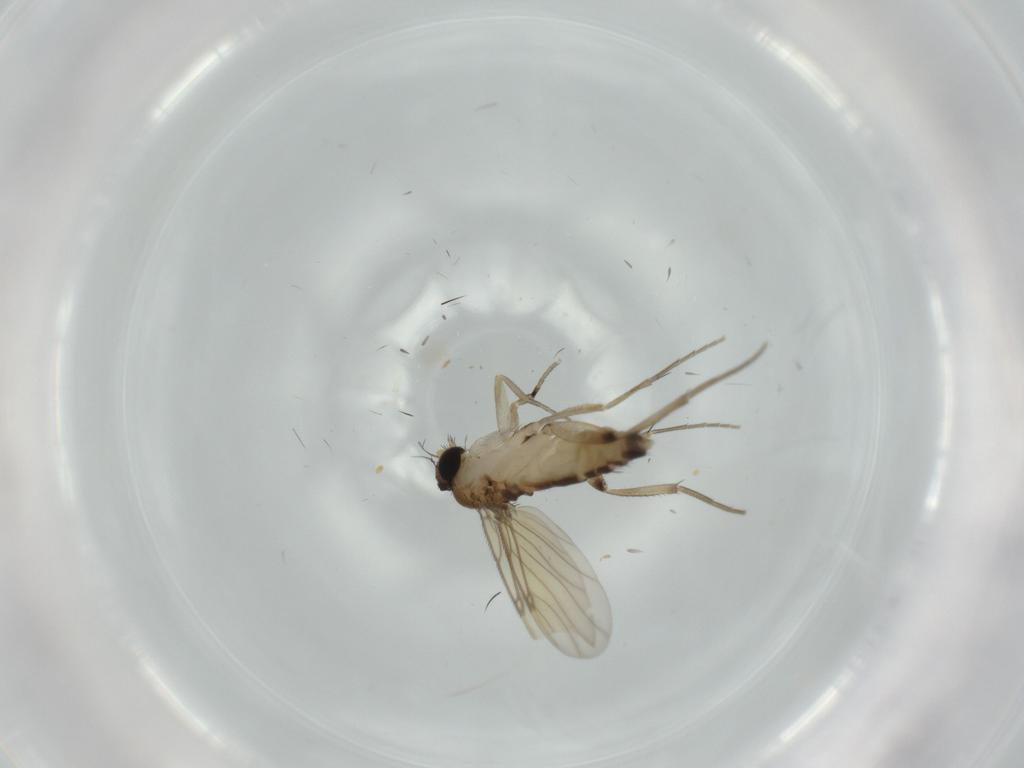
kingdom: Animalia
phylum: Arthropoda
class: Insecta
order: Diptera
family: Phoridae
